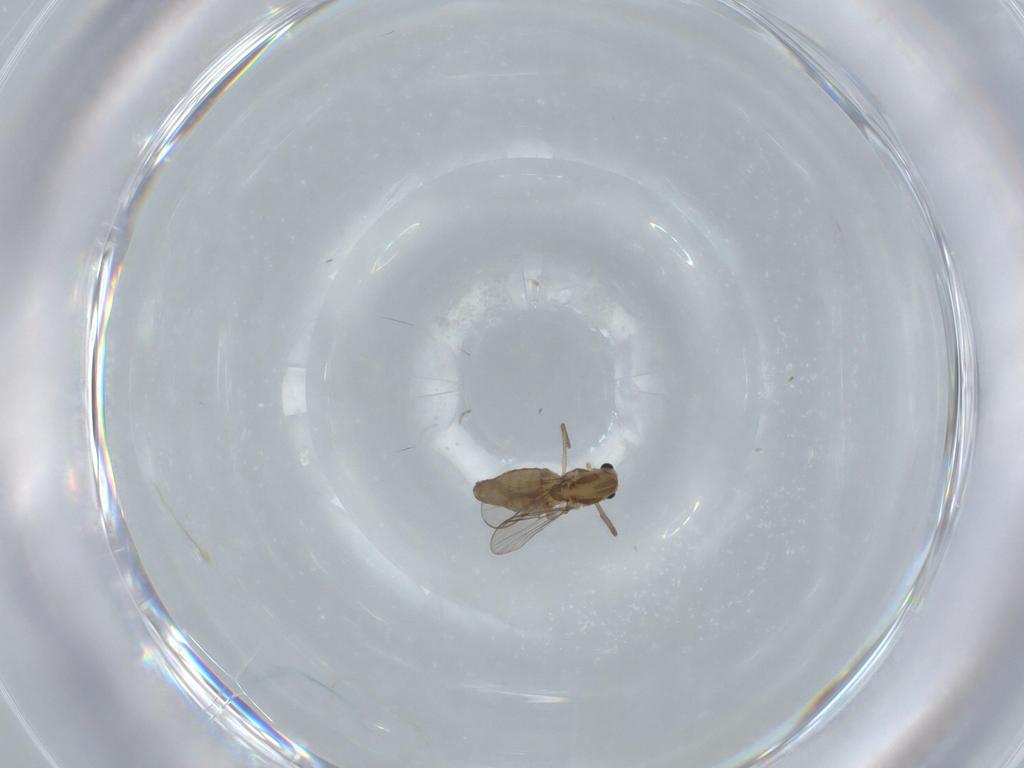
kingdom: Animalia
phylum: Arthropoda
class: Insecta
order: Diptera
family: Chironomidae
